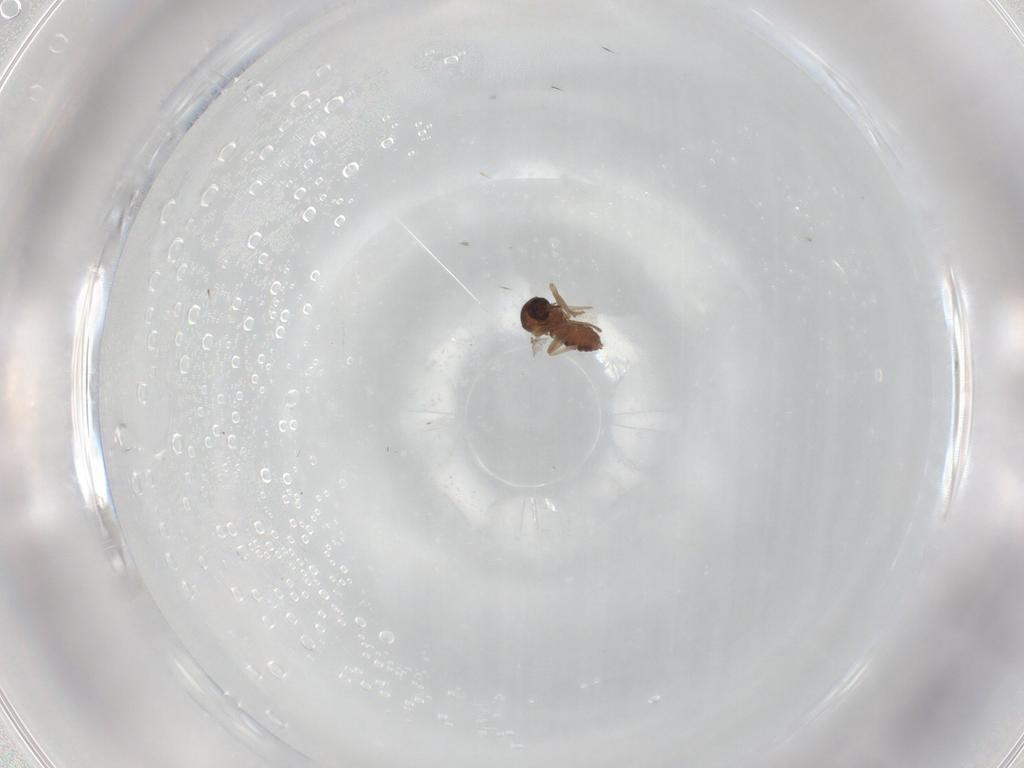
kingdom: Animalia
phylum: Arthropoda
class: Insecta
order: Diptera
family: Ceratopogonidae
